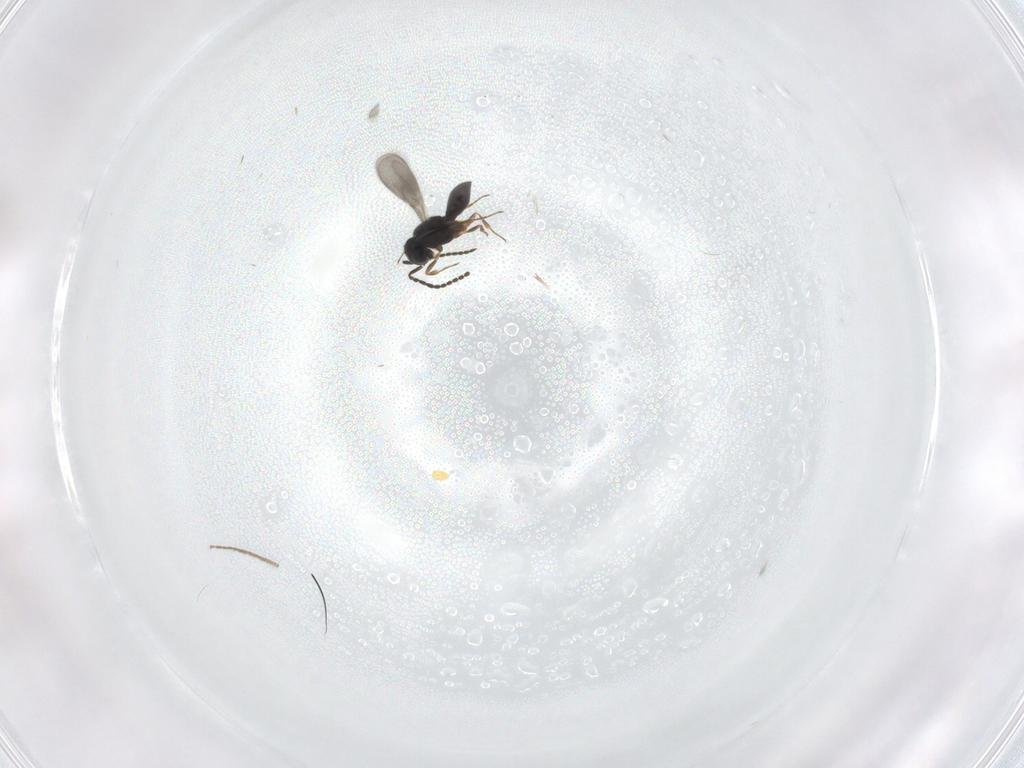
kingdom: Animalia
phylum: Arthropoda
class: Insecta
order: Hymenoptera
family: Scelionidae
